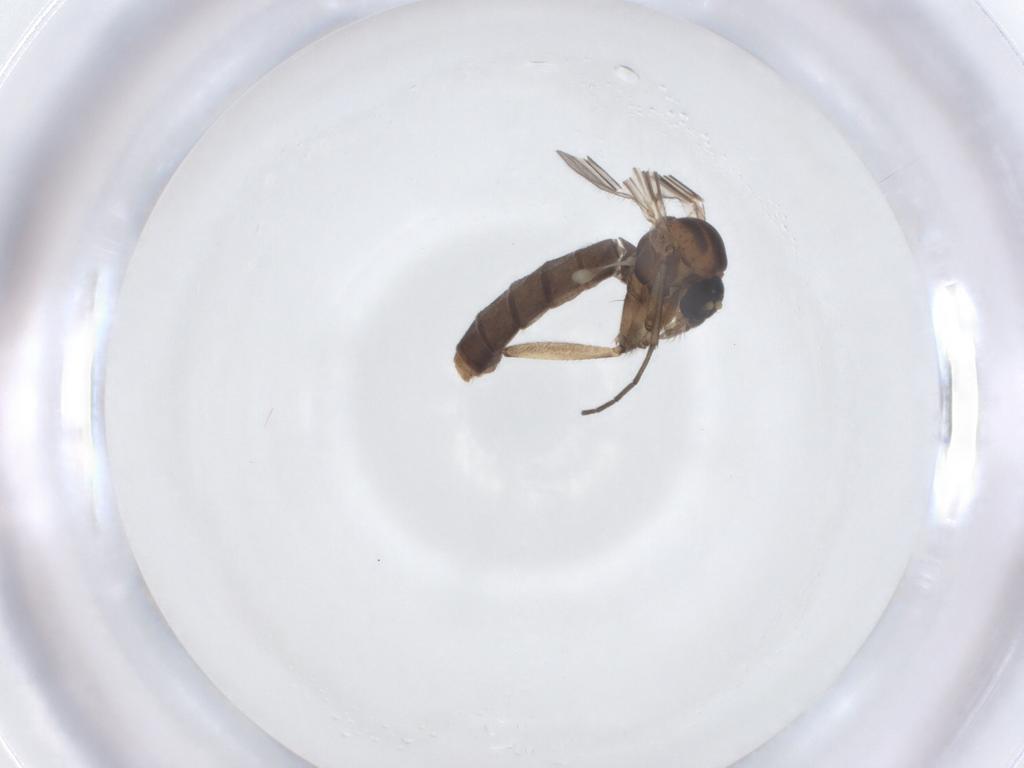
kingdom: Animalia
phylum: Arthropoda
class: Insecta
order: Diptera
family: Mycetophilidae
